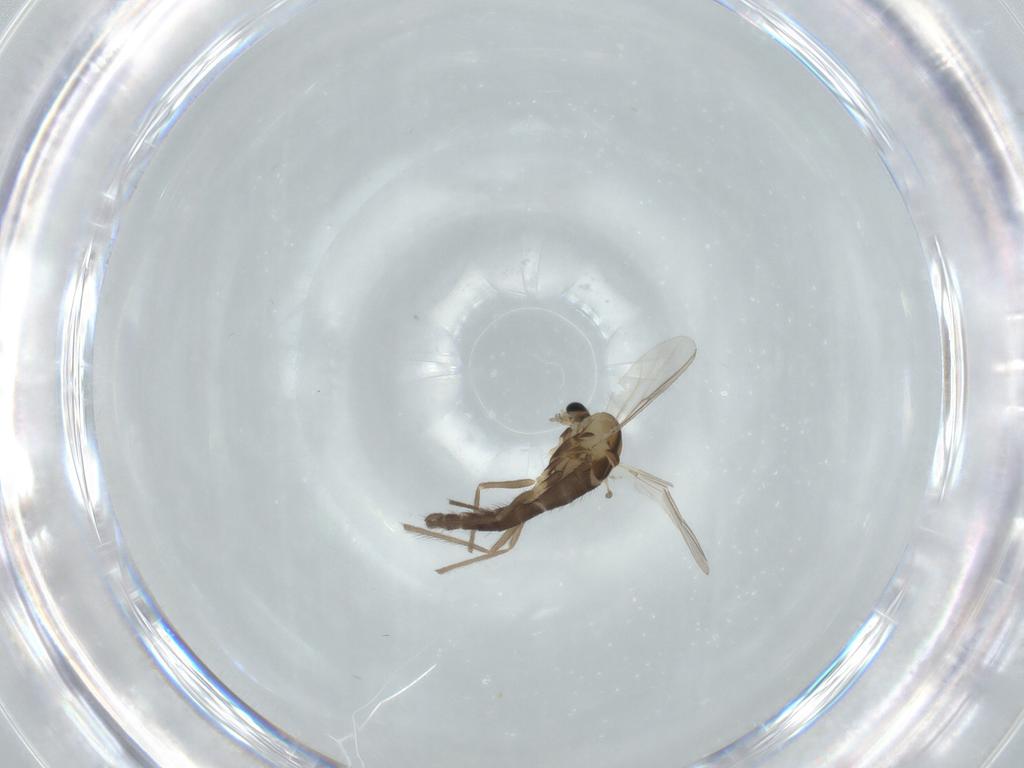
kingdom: Animalia
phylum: Arthropoda
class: Insecta
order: Diptera
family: Chironomidae
